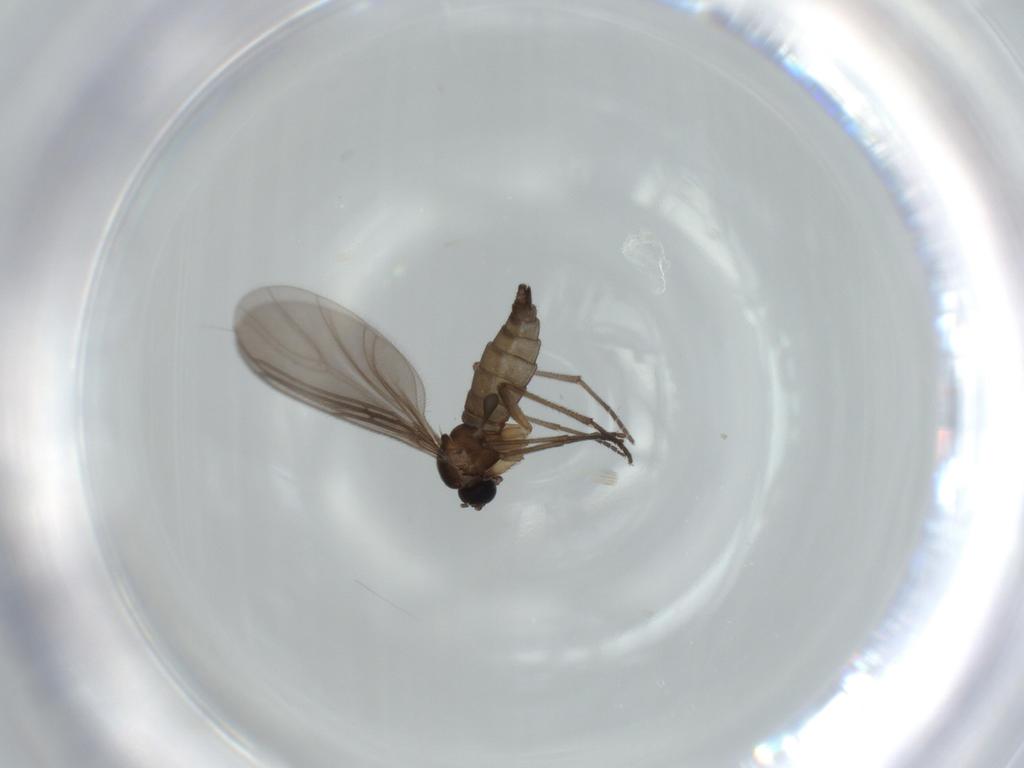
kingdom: Animalia
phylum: Arthropoda
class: Insecta
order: Diptera
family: Sciaridae
